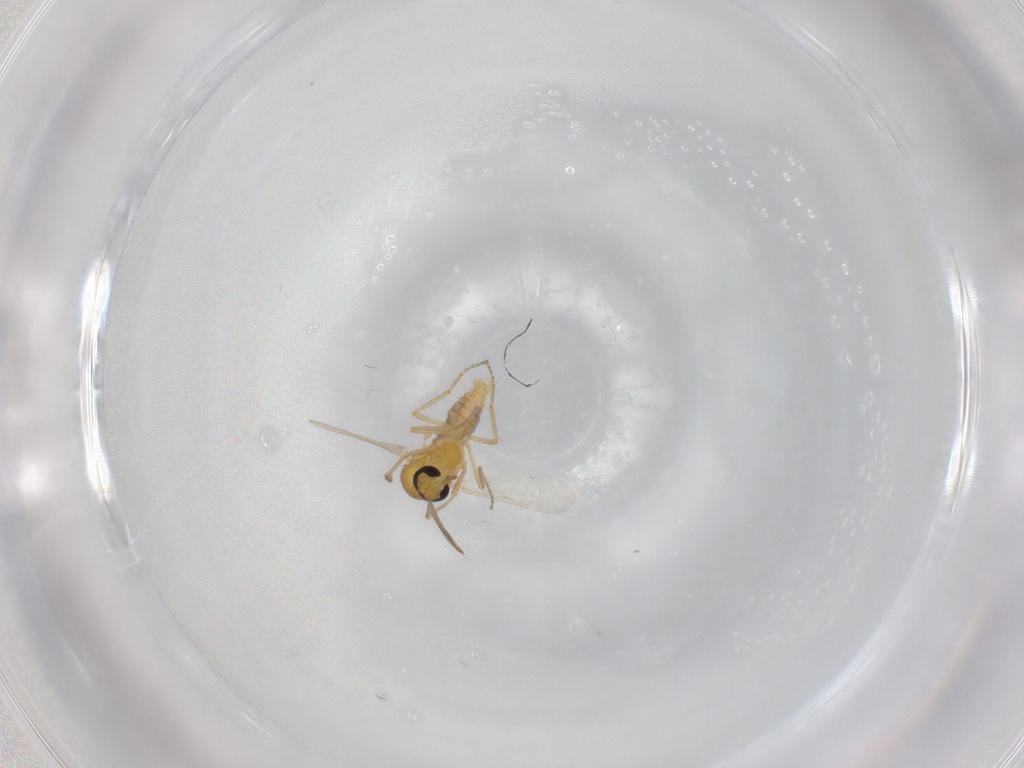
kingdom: Animalia
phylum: Arthropoda
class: Insecta
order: Diptera
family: Ceratopogonidae
